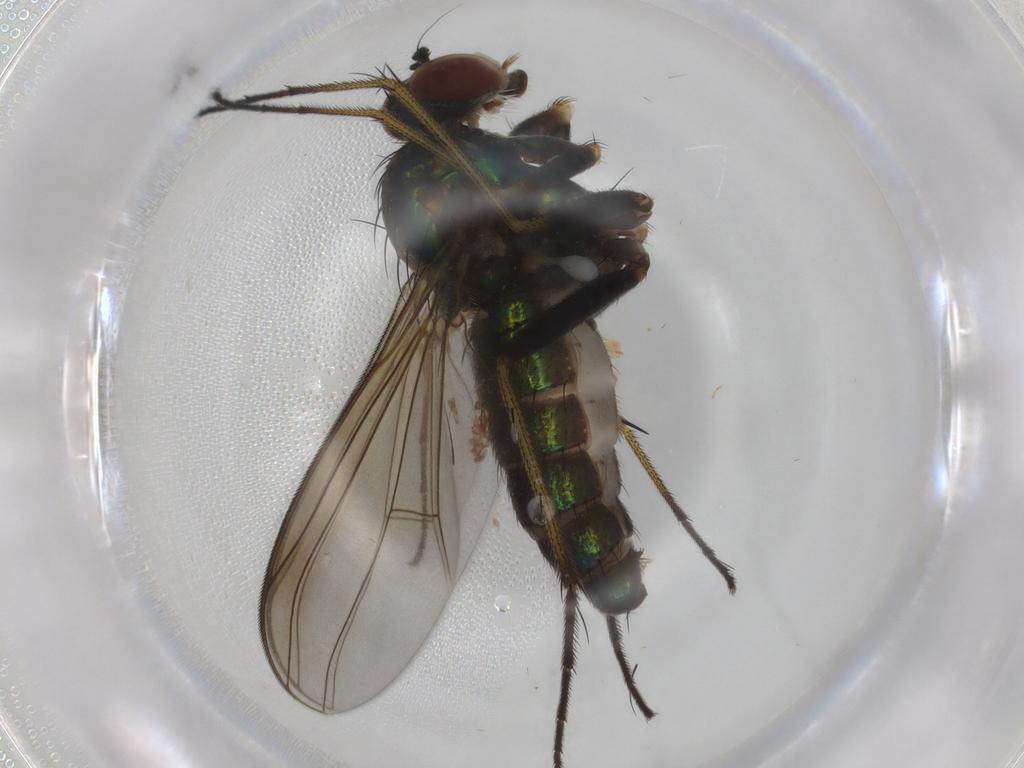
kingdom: Animalia
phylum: Arthropoda
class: Insecta
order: Diptera
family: Dolichopodidae
